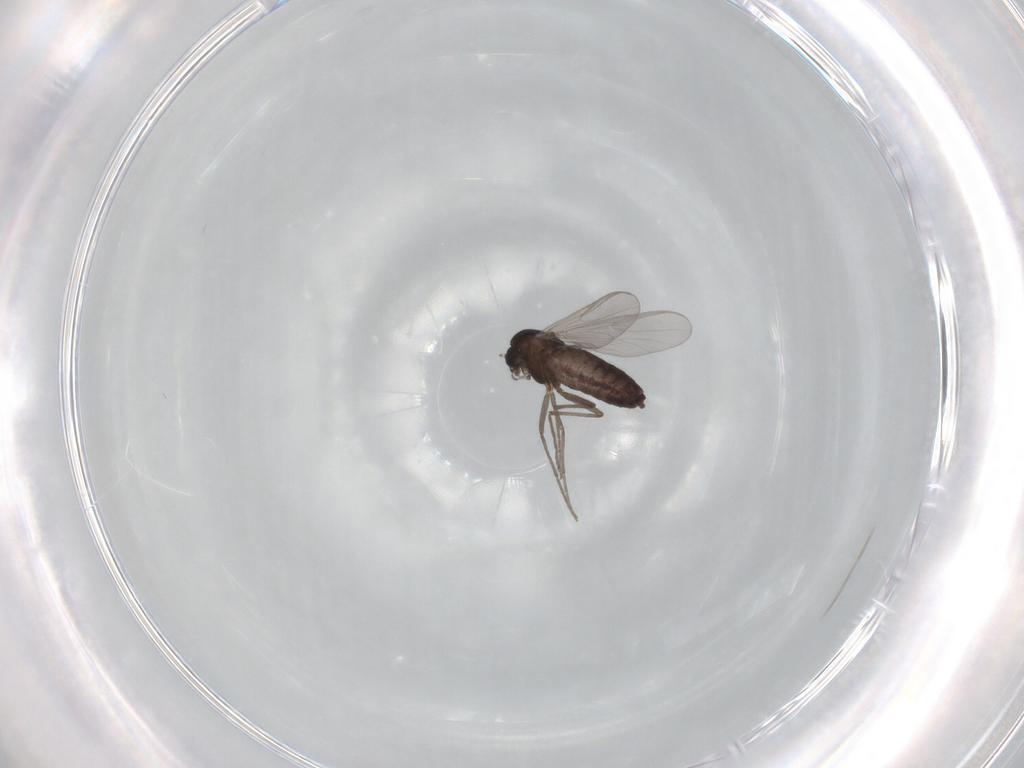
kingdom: Animalia
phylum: Arthropoda
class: Insecta
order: Diptera
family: Chironomidae
